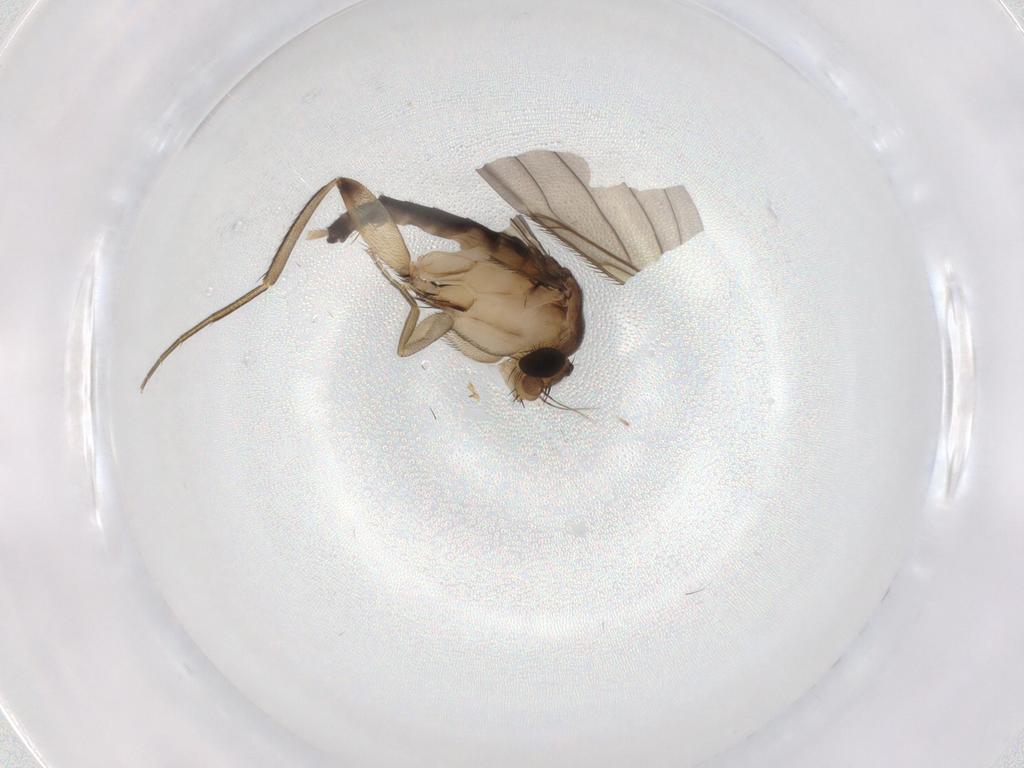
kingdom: Animalia
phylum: Arthropoda
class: Insecta
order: Diptera
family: Phoridae
